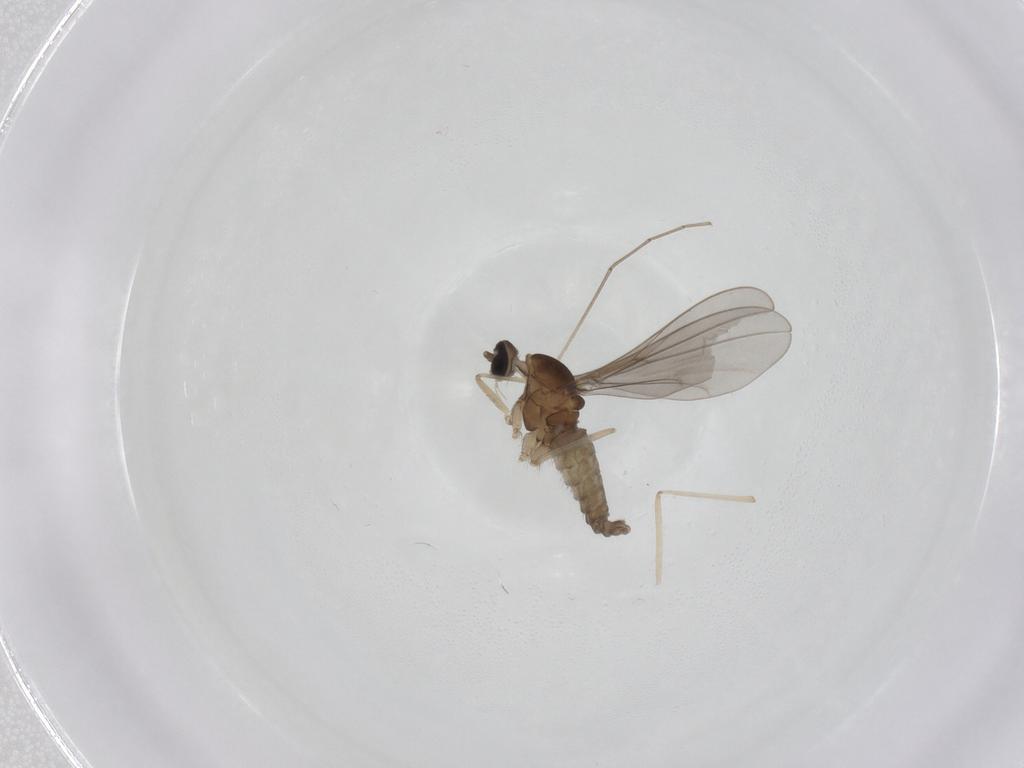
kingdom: Animalia
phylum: Arthropoda
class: Insecta
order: Diptera
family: Cecidomyiidae
